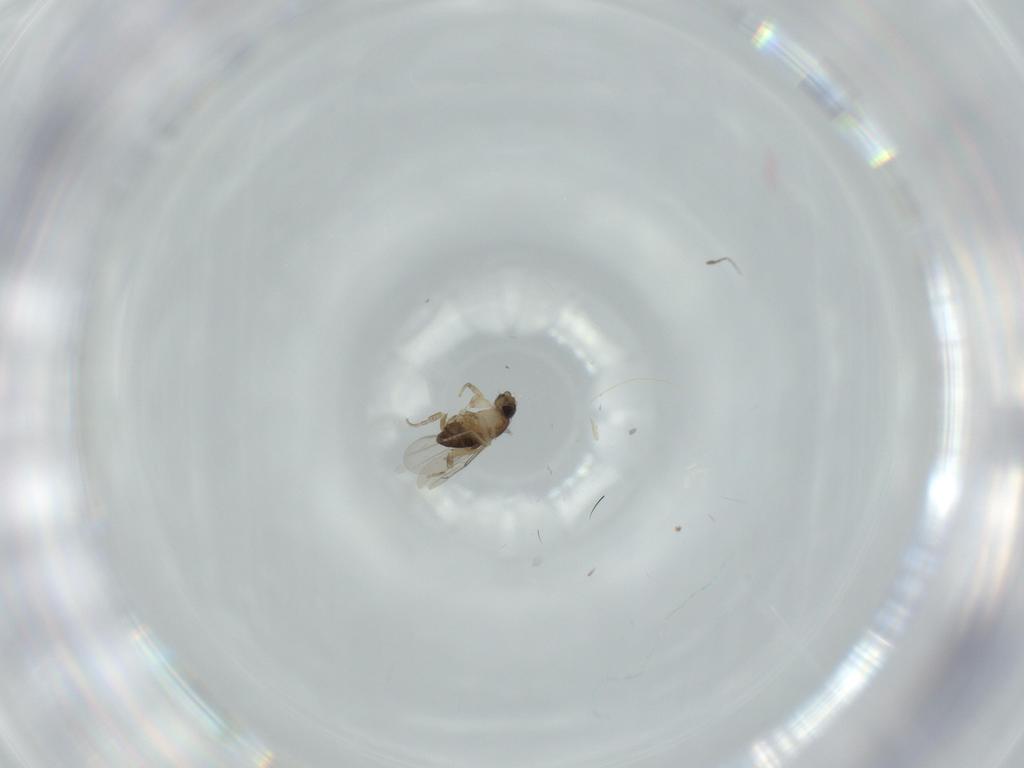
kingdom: Animalia
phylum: Arthropoda
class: Insecta
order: Diptera
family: Phoridae
